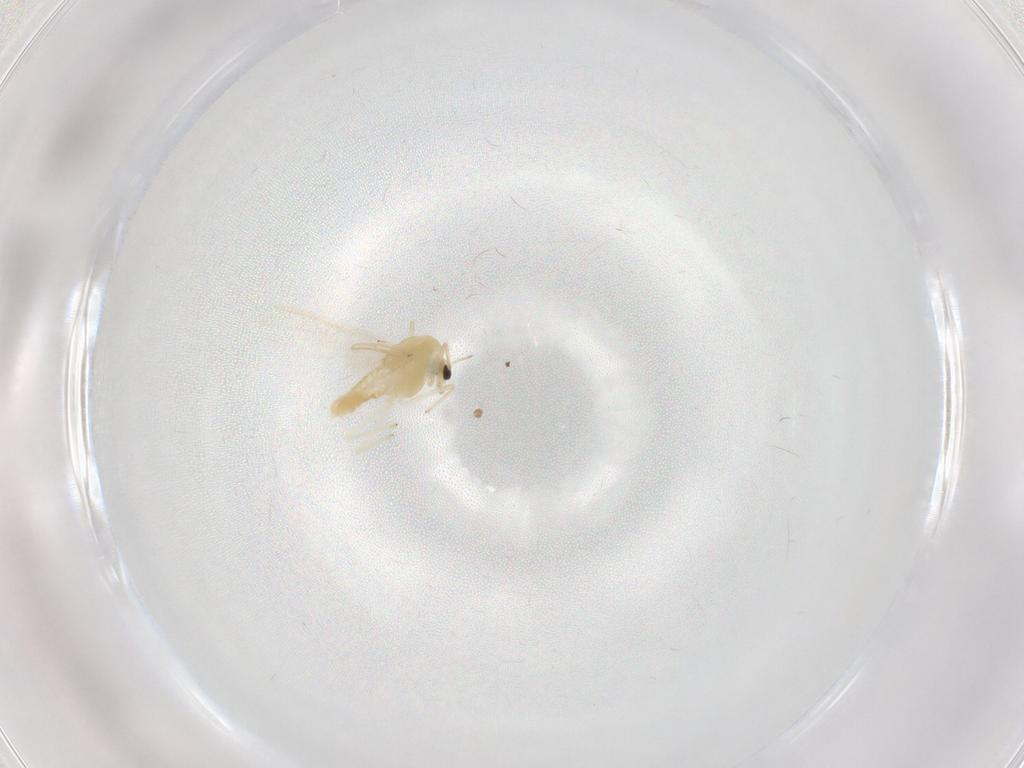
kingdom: Animalia
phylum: Arthropoda
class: Insecta
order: Diptera
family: Chironomidae
